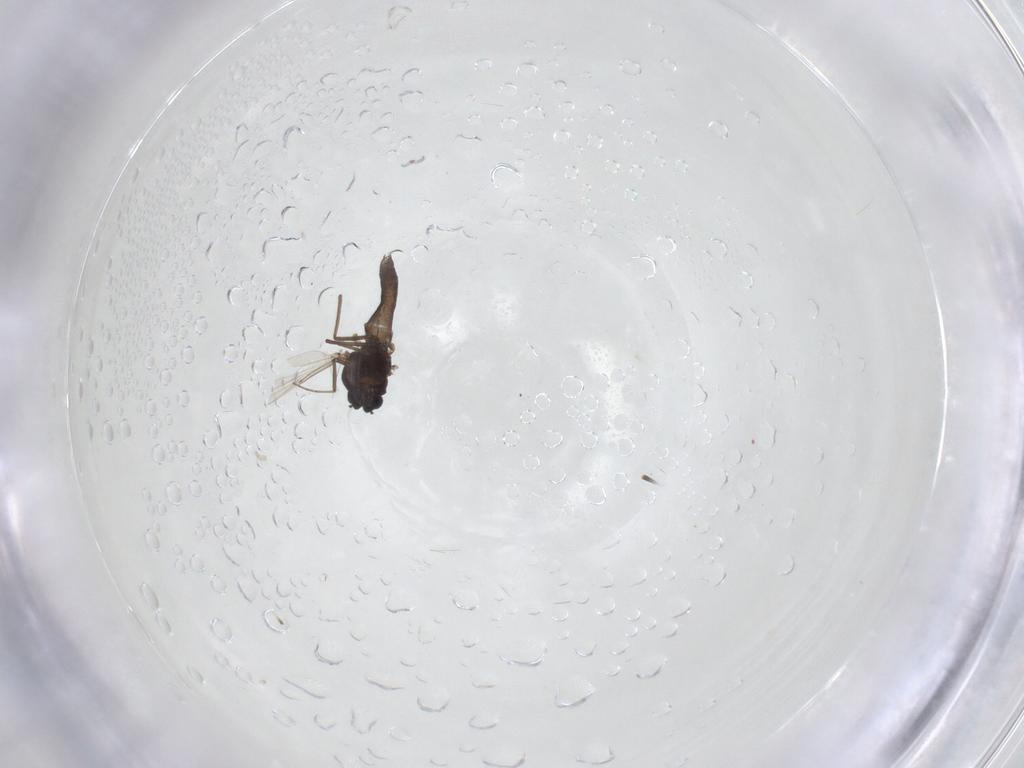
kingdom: Animalia
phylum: Arthropoda
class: Insecta
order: Diptera
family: Ceratopogonidae
